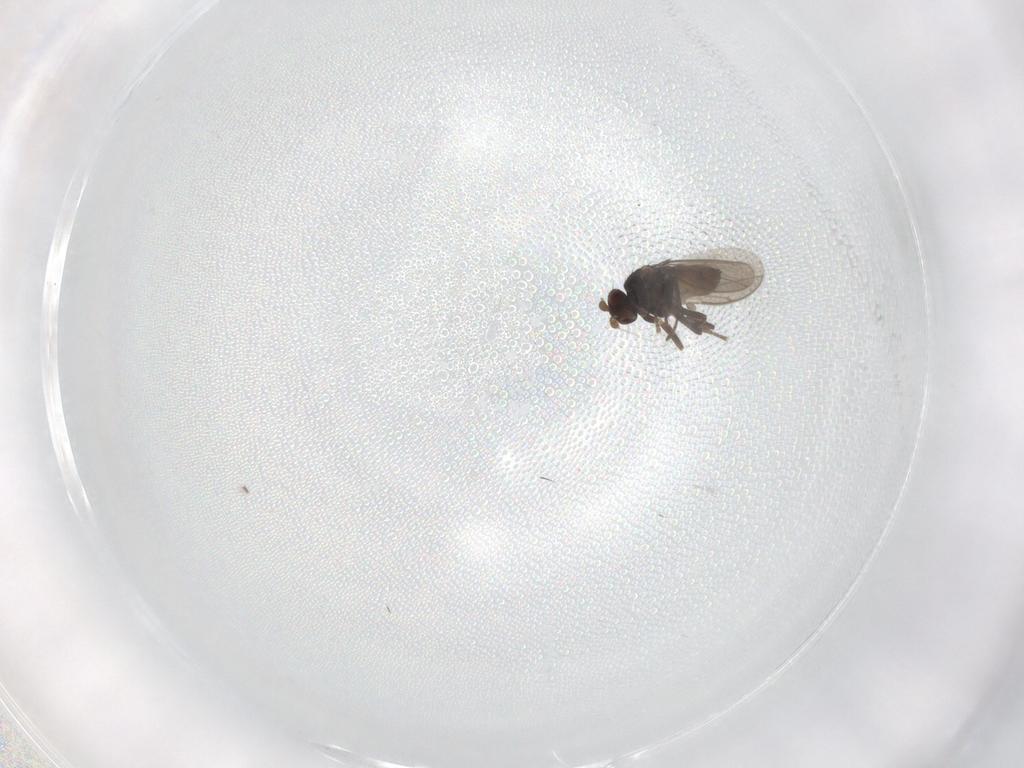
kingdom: Animalia
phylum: Arthropoda
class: Insecta
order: Diptera
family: Sphaeroceridae
